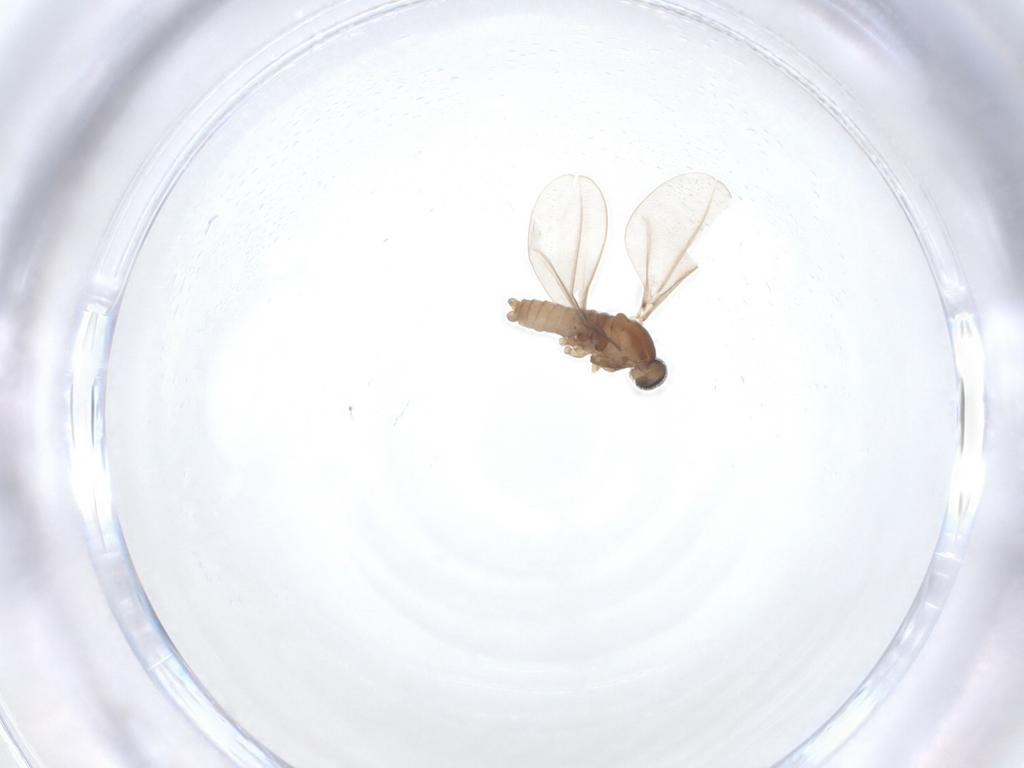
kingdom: Animalia
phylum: Arthropoda
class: Insecta
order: Diptera
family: Cecidomyiidae
